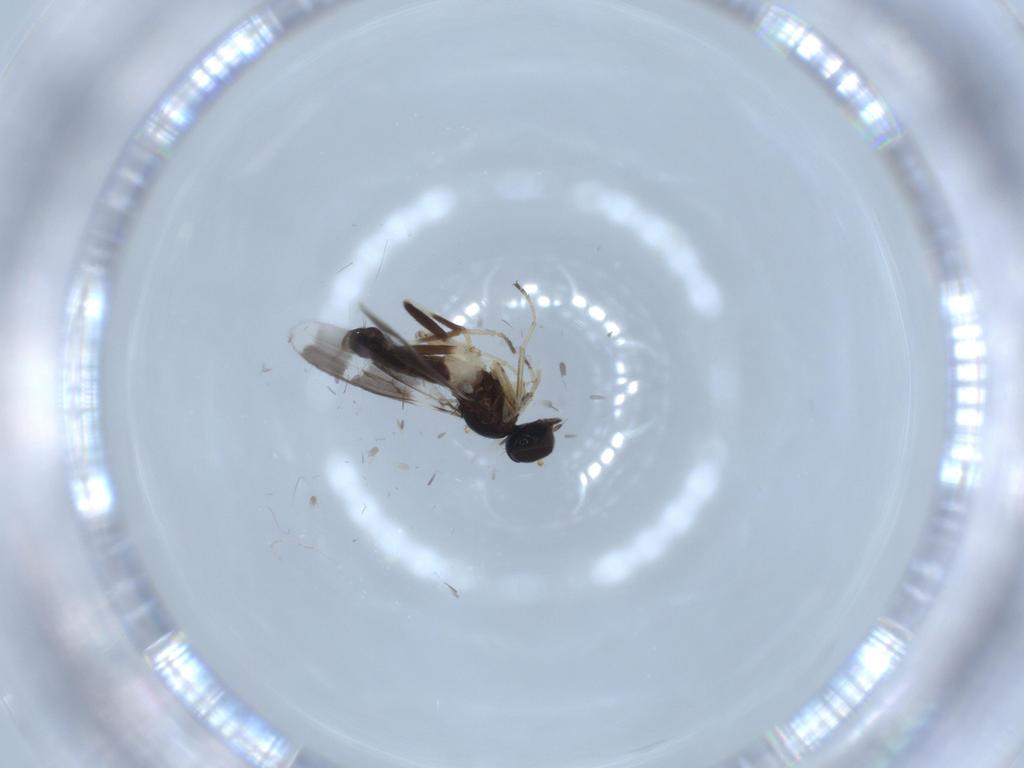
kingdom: Animalia
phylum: Arthropoda
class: Insecta
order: Diptera
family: Hybotidae
